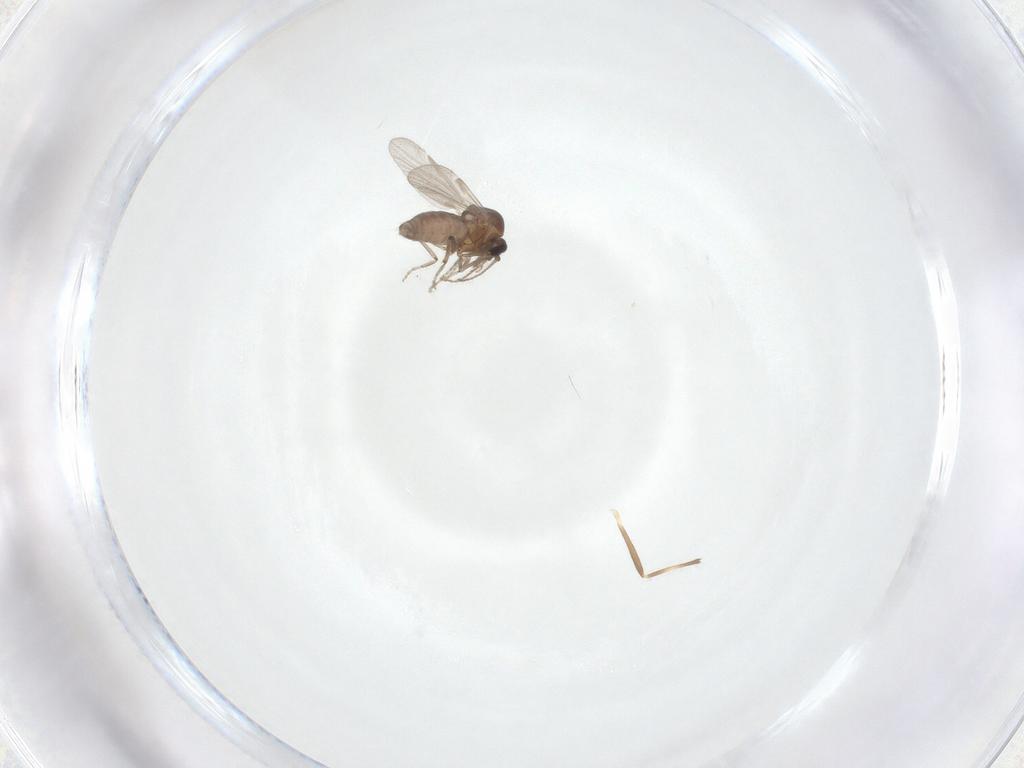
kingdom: Animalia
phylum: Arthropoda
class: Insecta
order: Diptera
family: Ceratopogonidae
